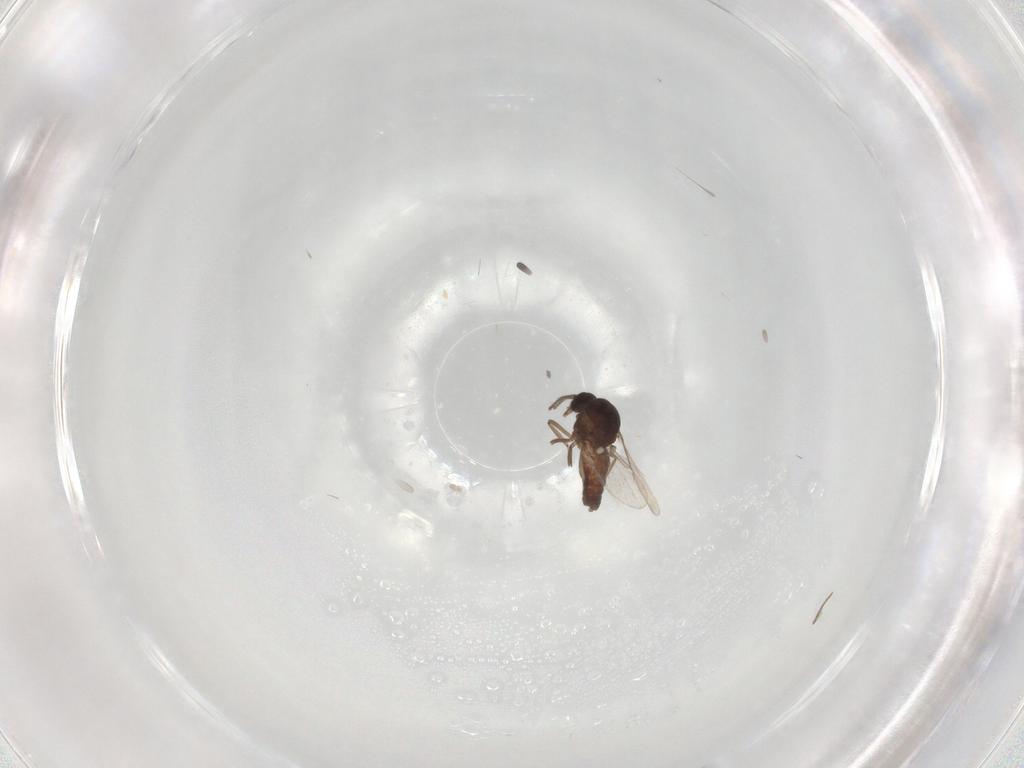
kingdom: Animalia
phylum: Arthropoda
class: Insecta
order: Diptera
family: Ceratopogonidae
